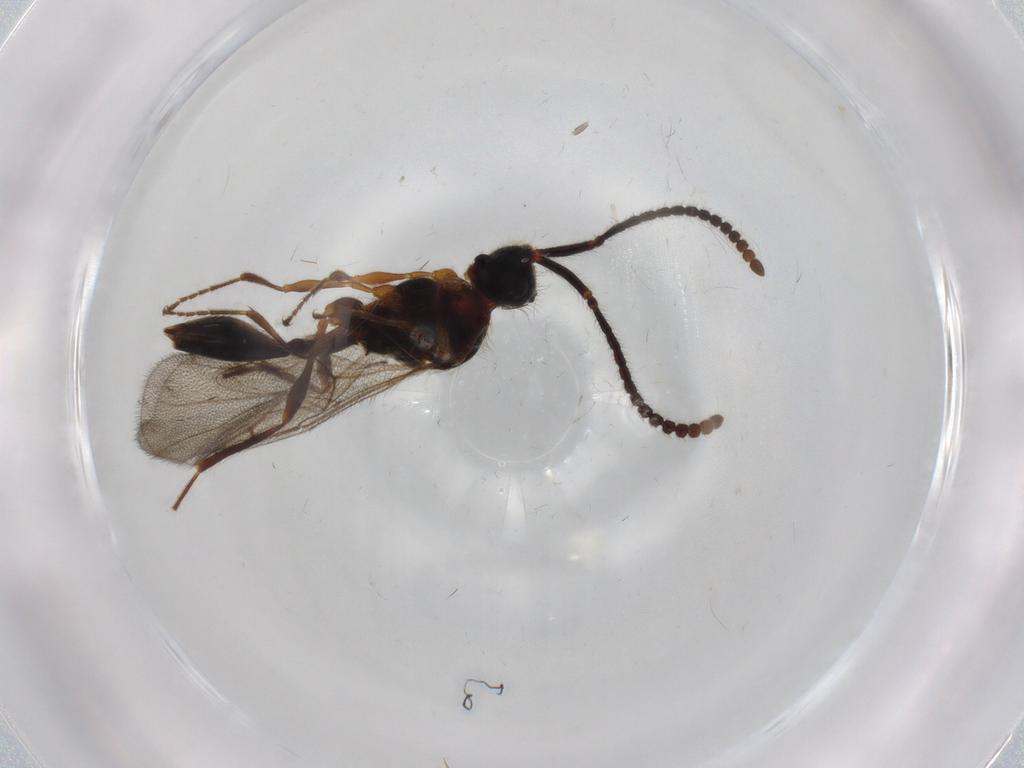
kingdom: Animalia
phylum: Arthropoda
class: Insecta
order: Hymenoptera
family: Diapriidae
